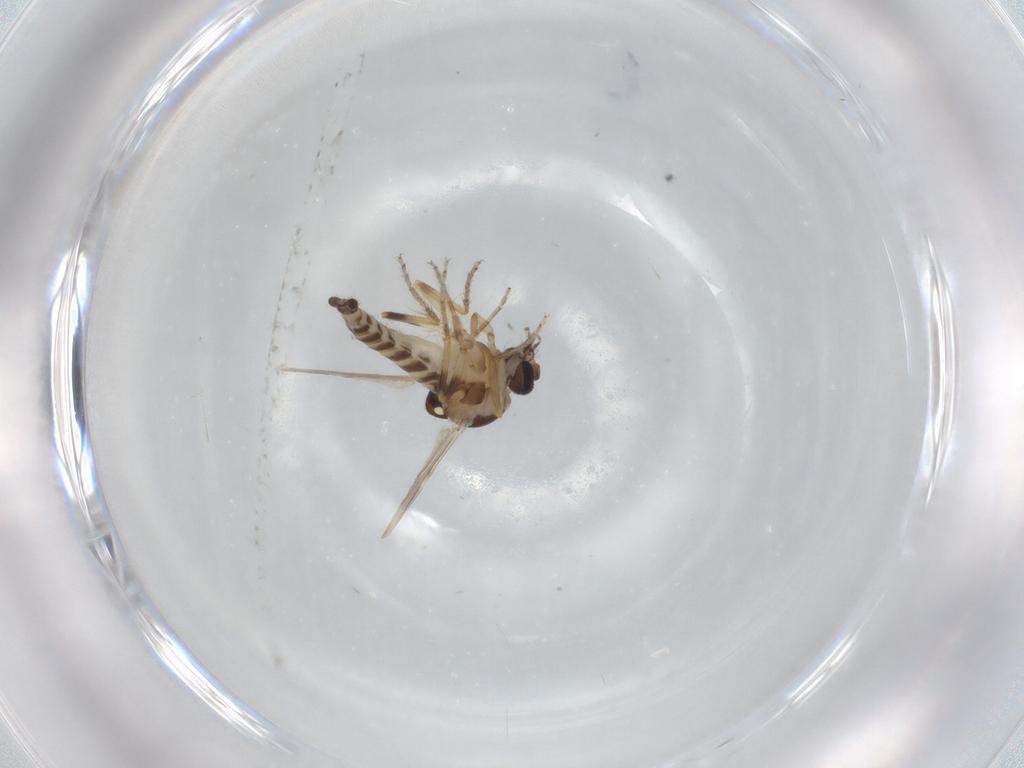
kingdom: Animalia
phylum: Arthropoda
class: Insecta
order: Diptera
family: Ceratopogonidae
